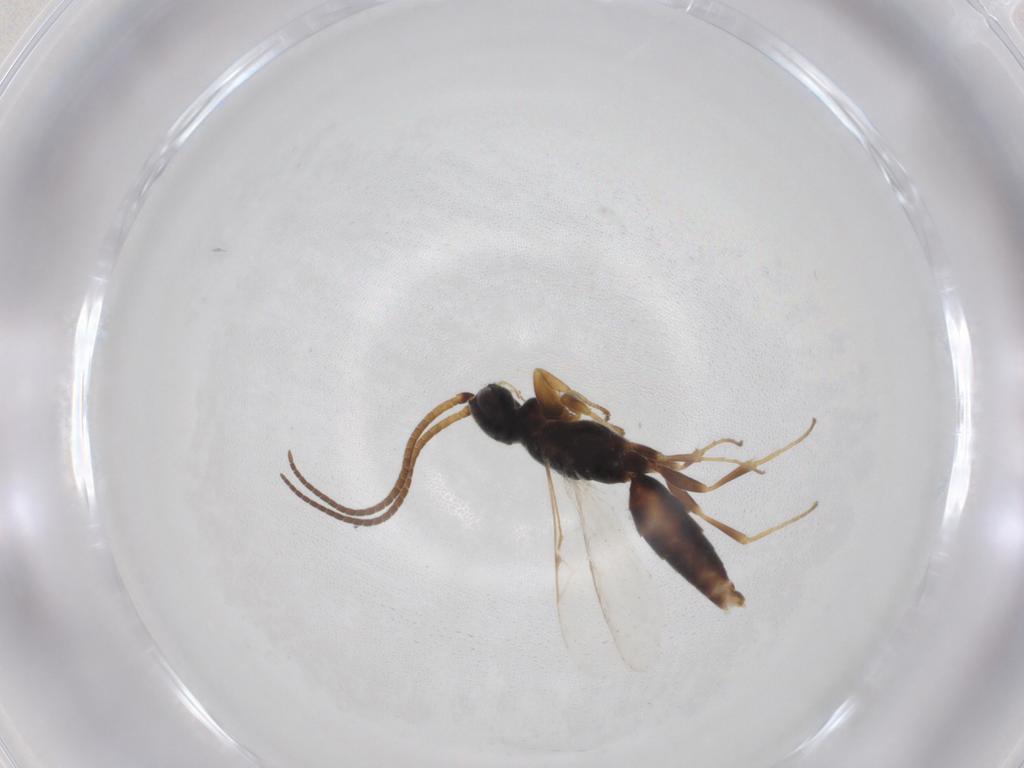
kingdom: Animalia
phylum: Arthropoda
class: Insecta
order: Hymenoptera
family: Sclerogibbidae
